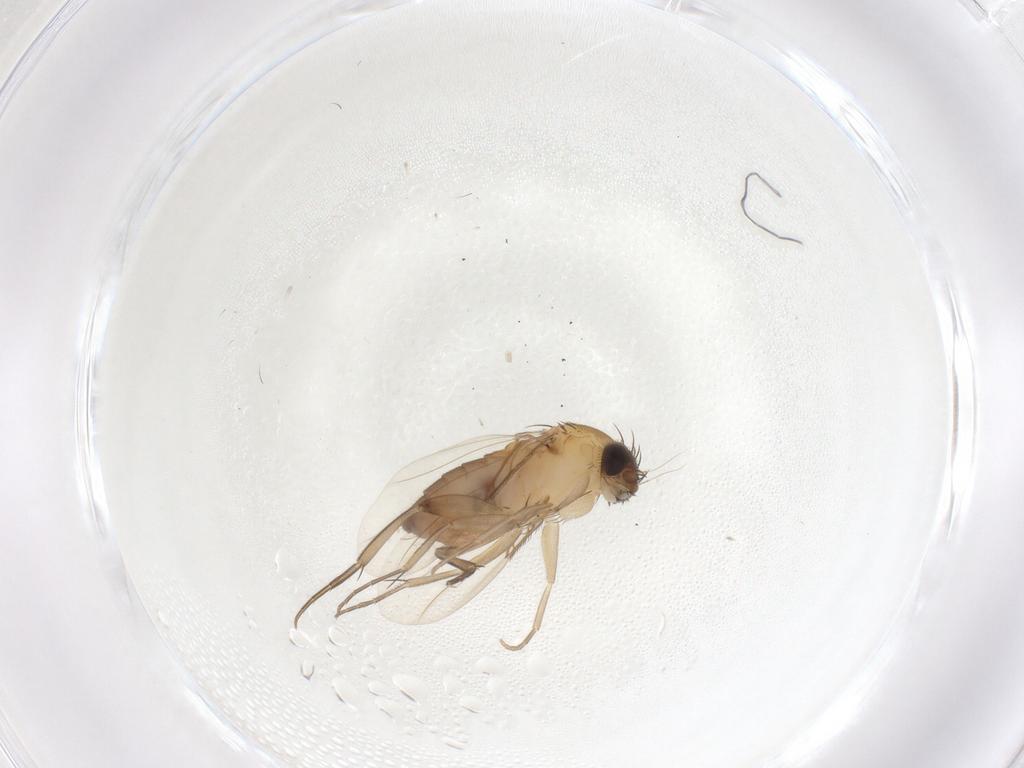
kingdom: Animalia
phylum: Arthropoda
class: Insecta
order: Diptera
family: Phoridae
